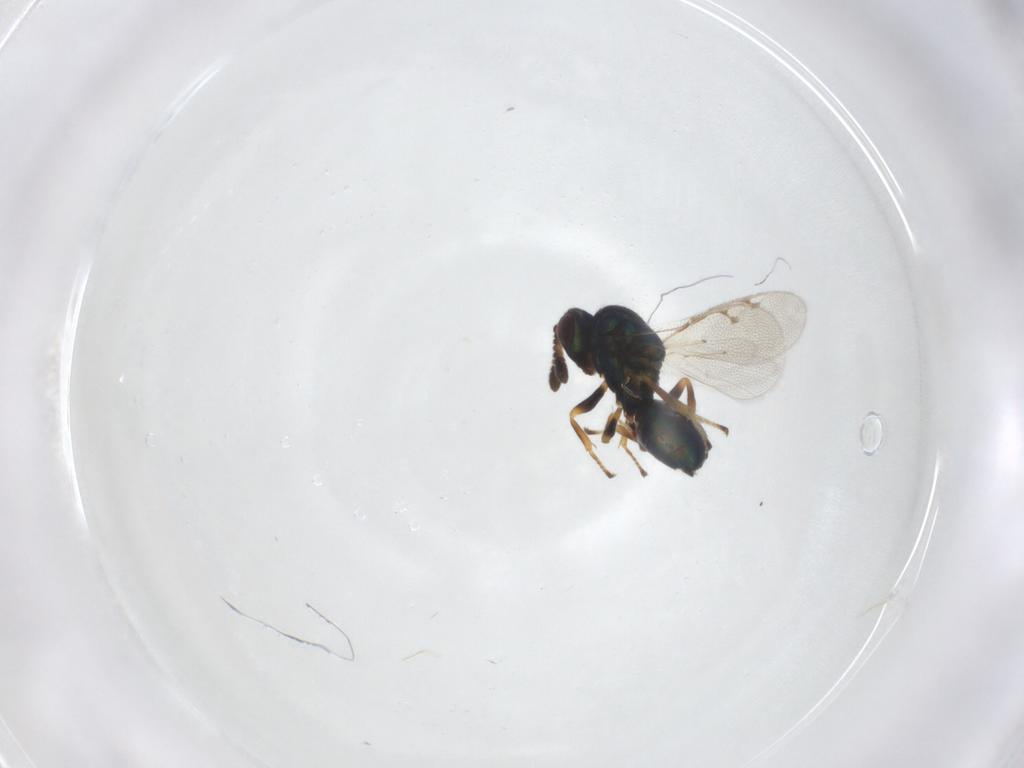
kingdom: Animalia
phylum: Arthropoda
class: Insecta
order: Hymenoptera
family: Pteromalidae
